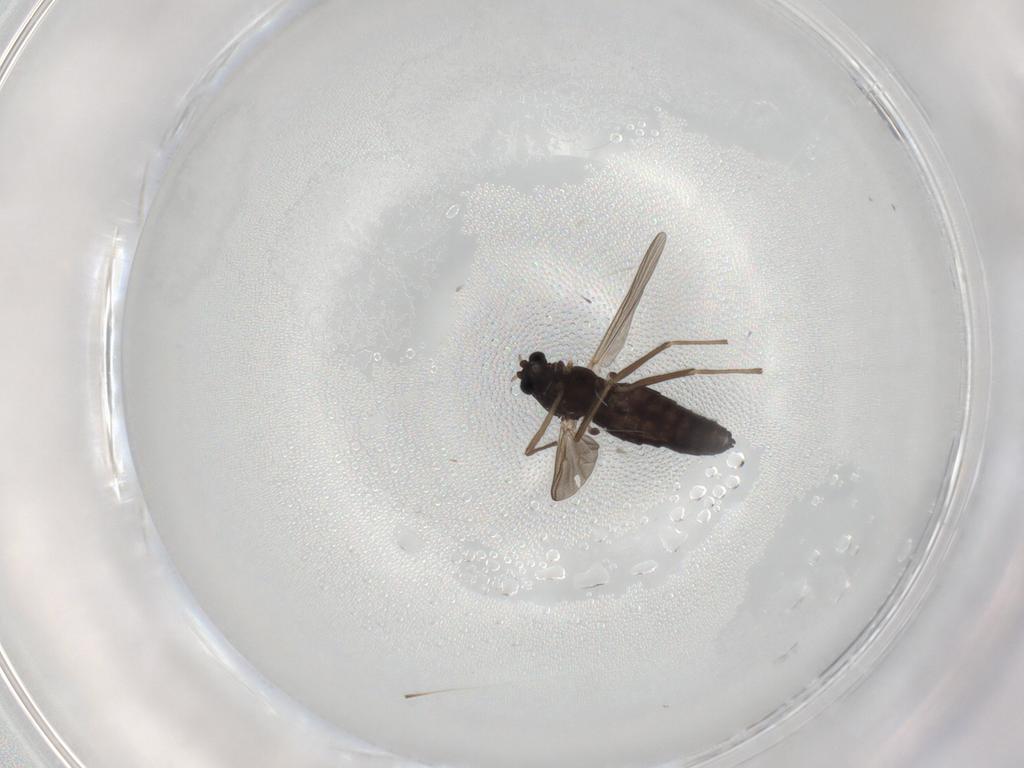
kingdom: Animalia
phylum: Arthropoda
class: Insecta
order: Diptera
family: Chironomidae
